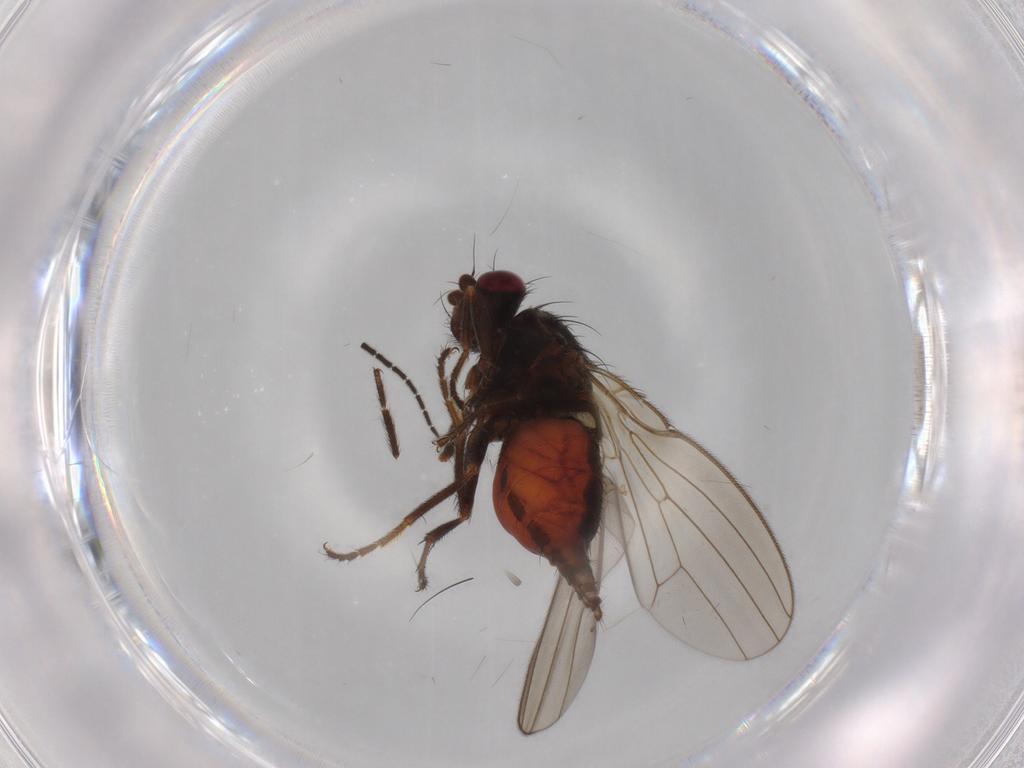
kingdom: Animalia
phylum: Arthropoda
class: Insecta
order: Diptera
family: Heleomyzidae
